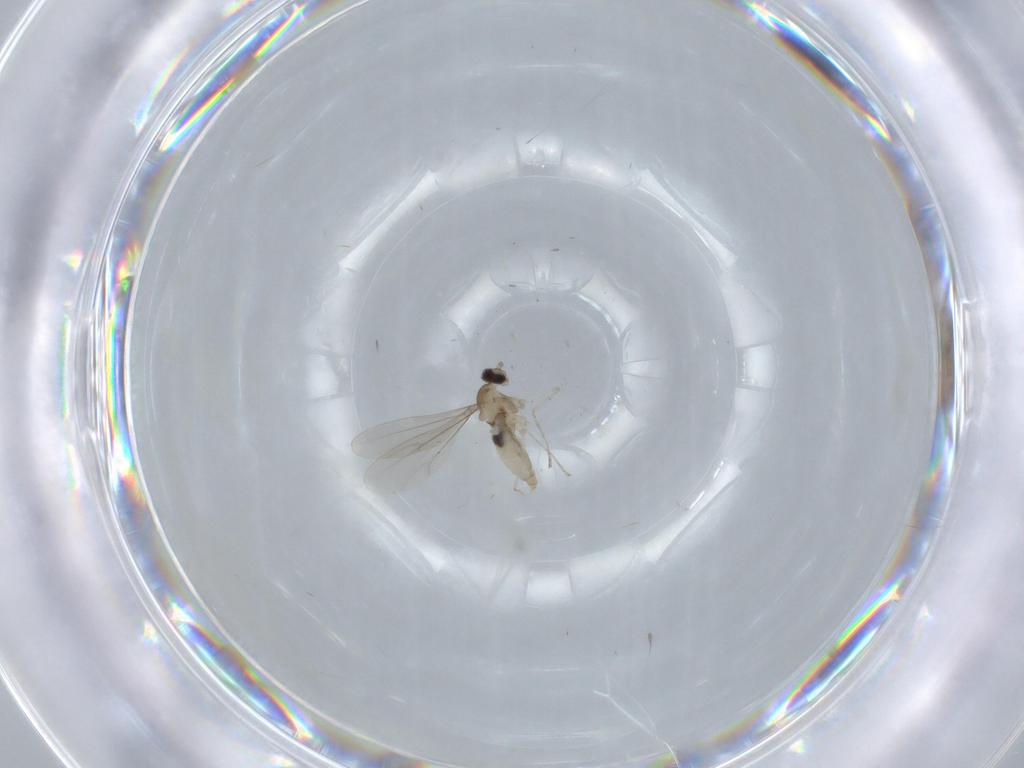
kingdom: Animalia
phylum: Arthropoda
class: Insecta
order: Diptera
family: Cecidomyiidae
